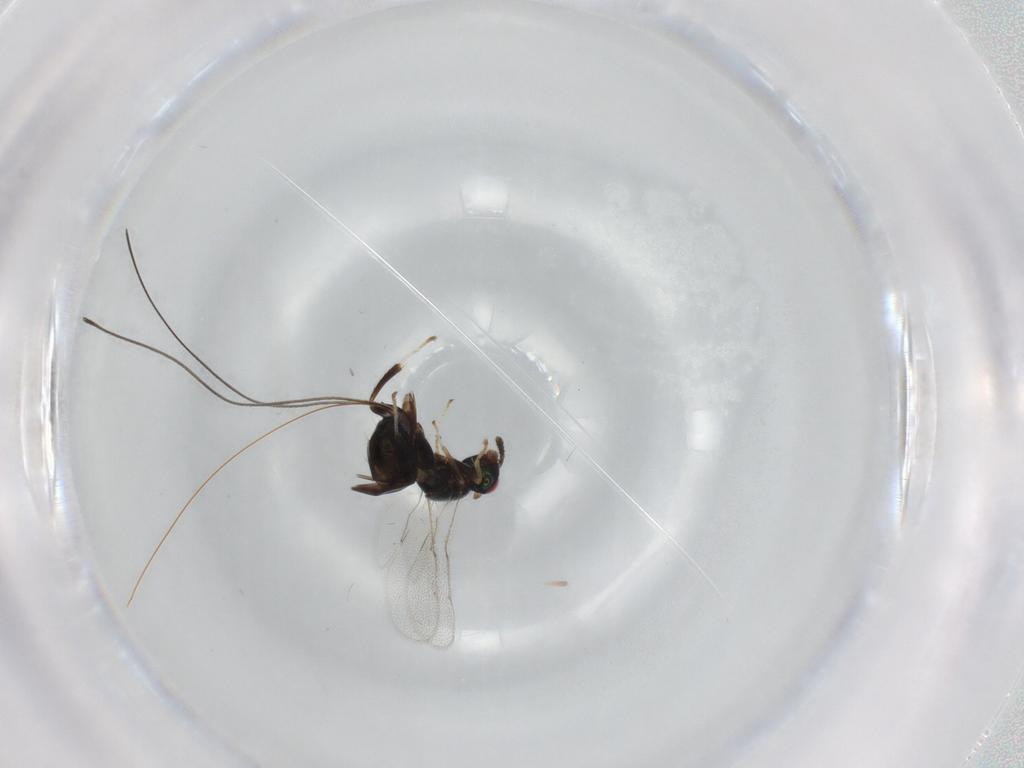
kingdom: Animalia
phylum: Arthropoda
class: Insecta
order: Hymenoptera
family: Torymidae
